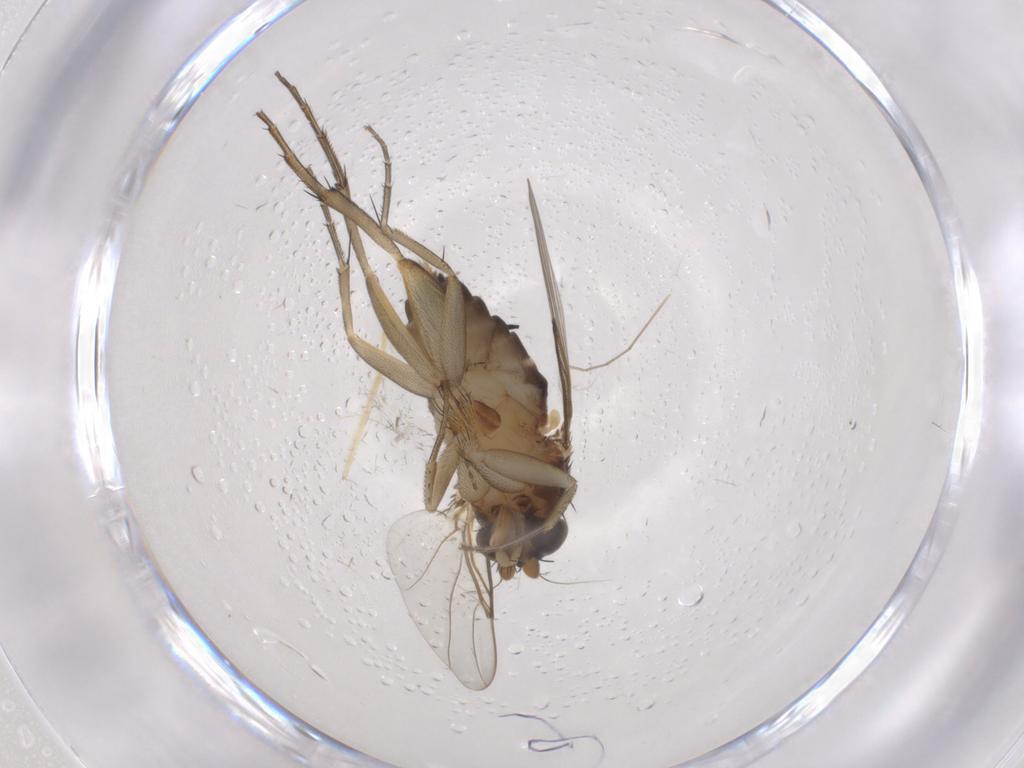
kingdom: Animalia
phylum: Arthropoda
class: Insecta
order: Diptera
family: Phoridae
